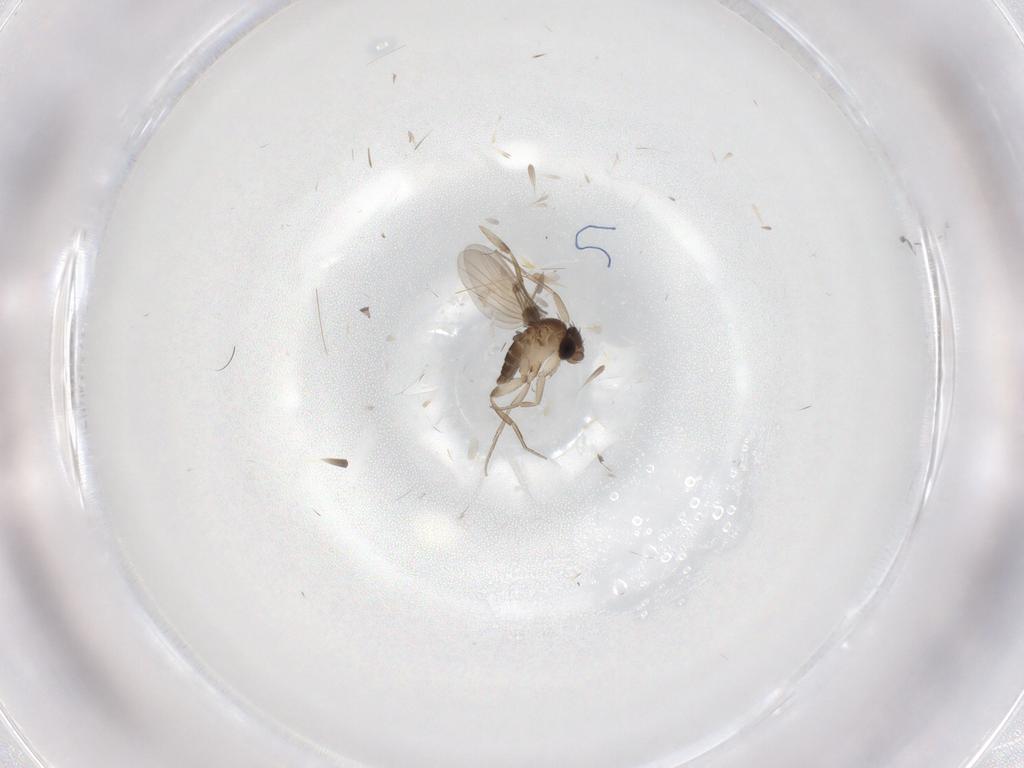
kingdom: Animalia
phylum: Arthropoda
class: Insecta
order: Diptera
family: Phoridae
